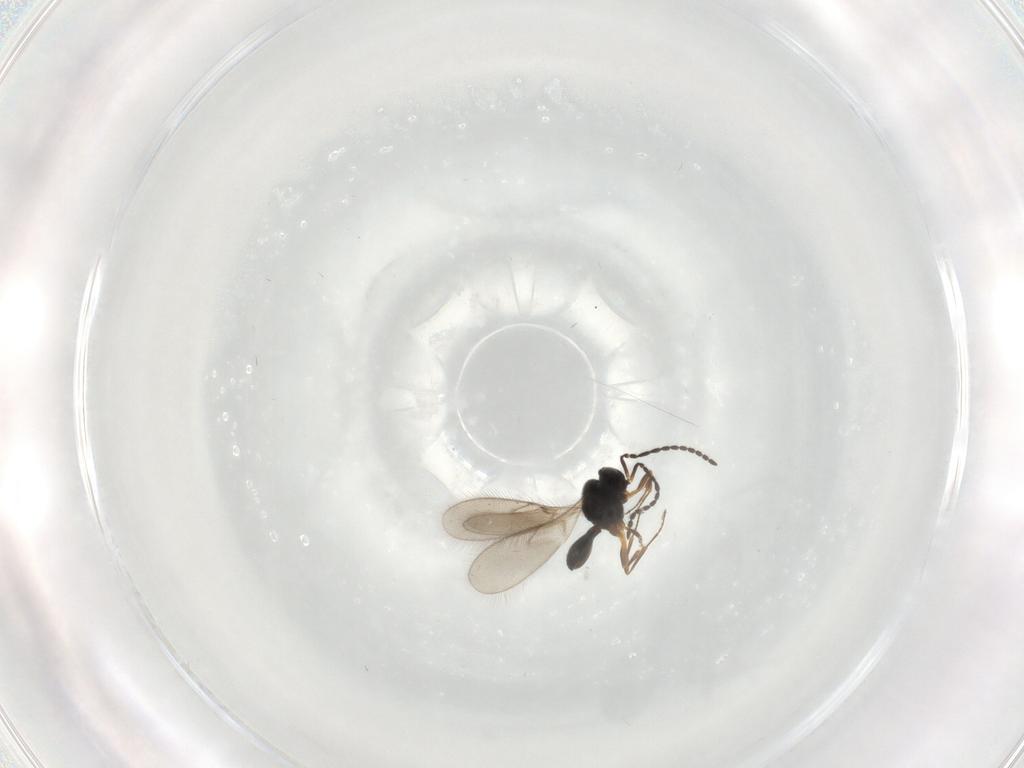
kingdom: Animalia
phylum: Arthropoda
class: Insecta
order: Hymenoptera
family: Scelionidae
